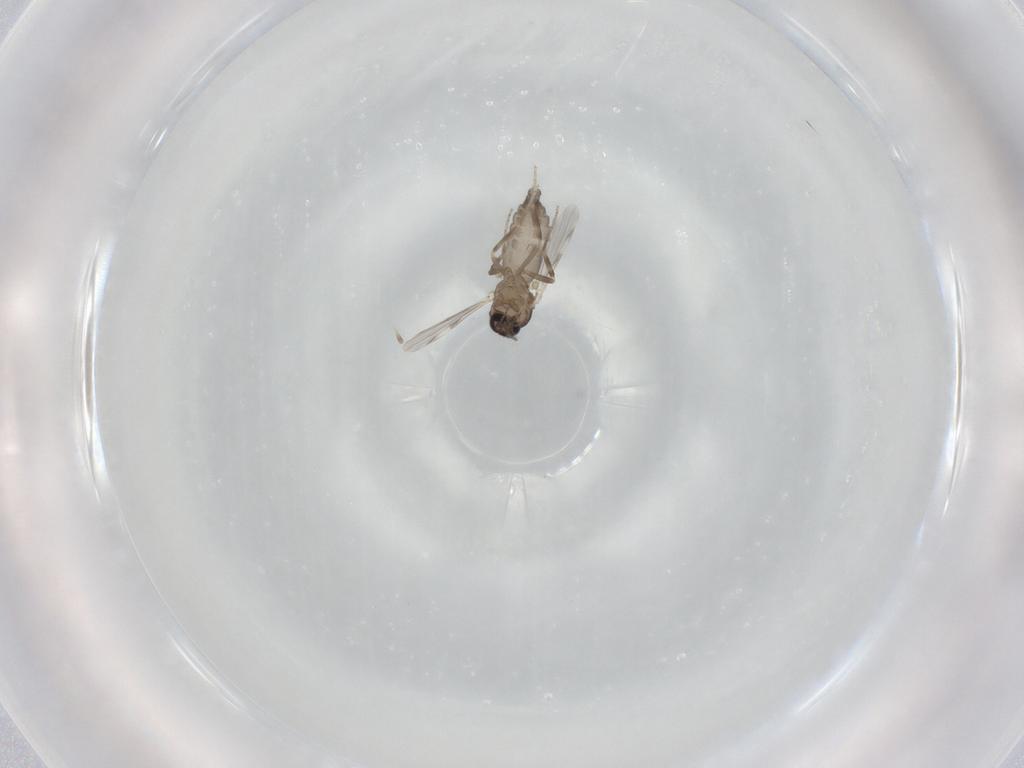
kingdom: Animalia
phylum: Arthropoda
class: Insecta
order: Diptera
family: Ceratopogonidae
